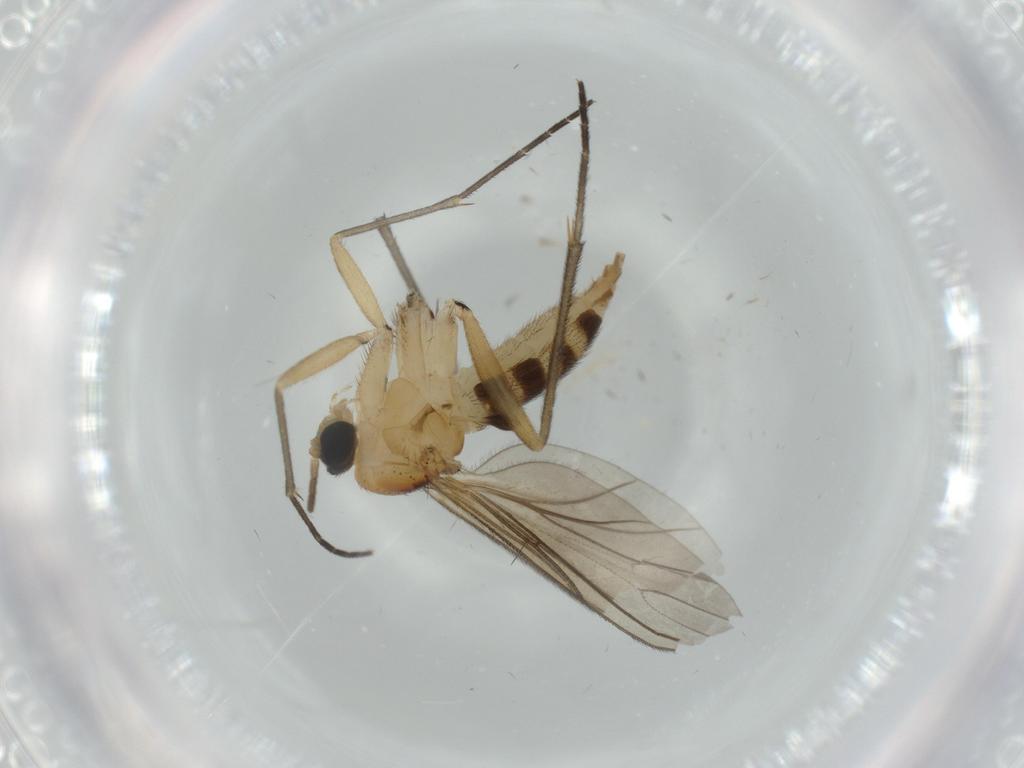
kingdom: Animalia
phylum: Arthropoda
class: Insecta
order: Diptera
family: Sciaridae
